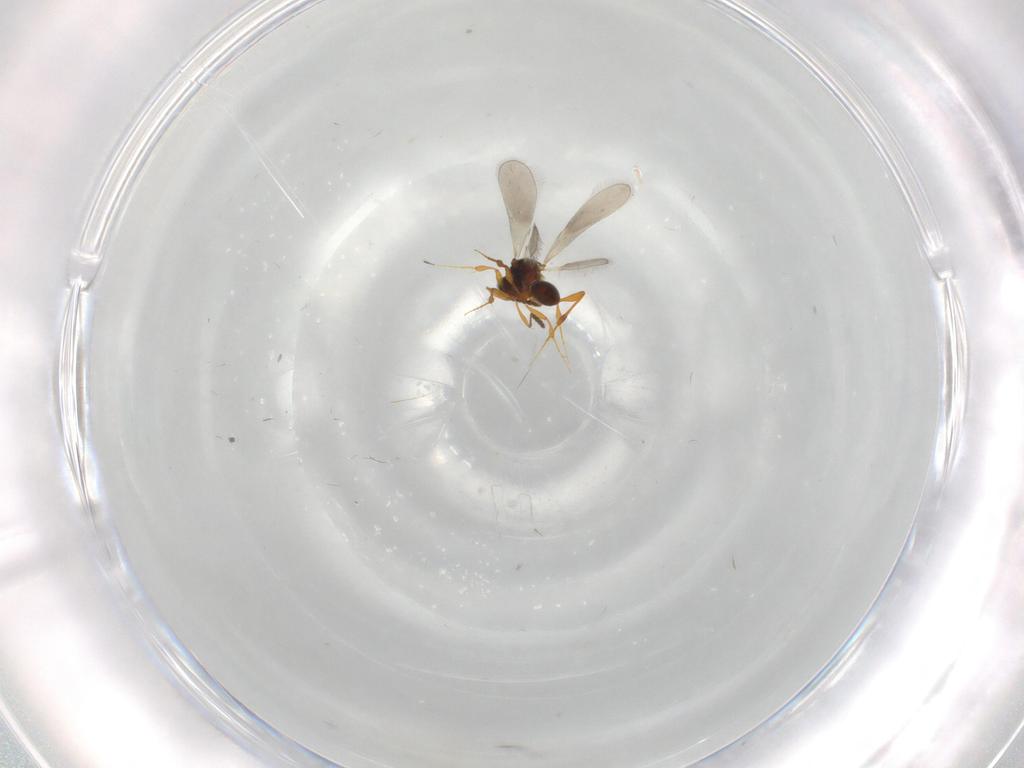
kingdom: Animalia
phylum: Arthropoda
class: Insecta
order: Hymenoptera
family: Platygastridae
